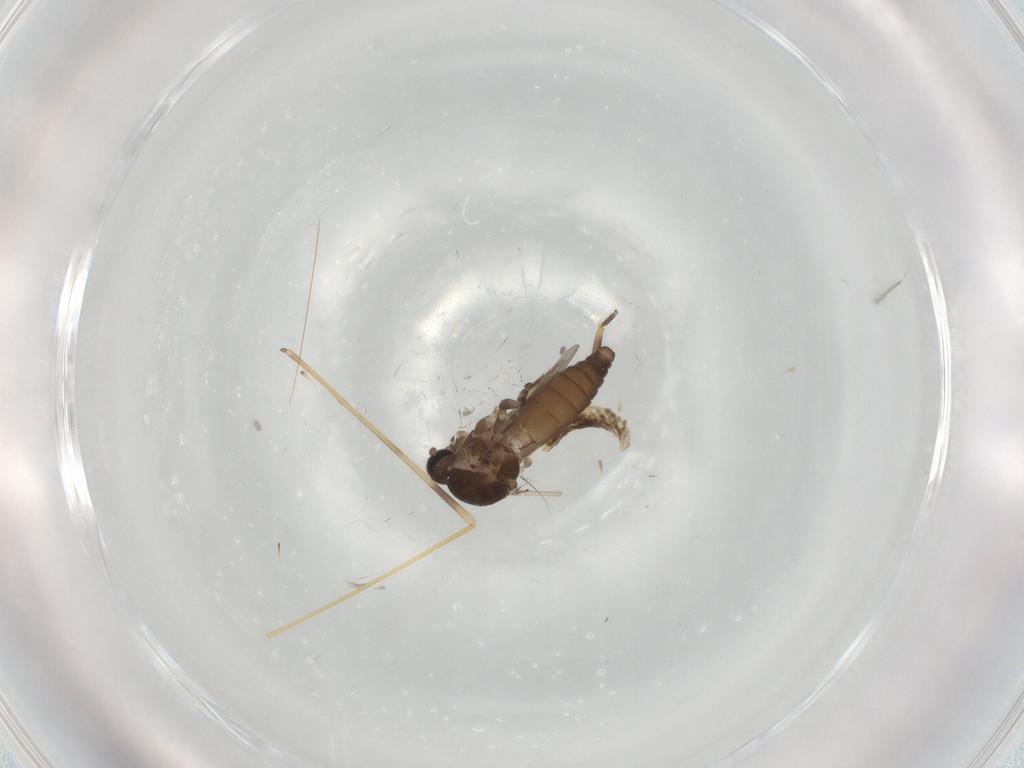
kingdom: Animalia
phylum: Arthropoda
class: Insecta
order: Diptera
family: Ceratopogonidae
